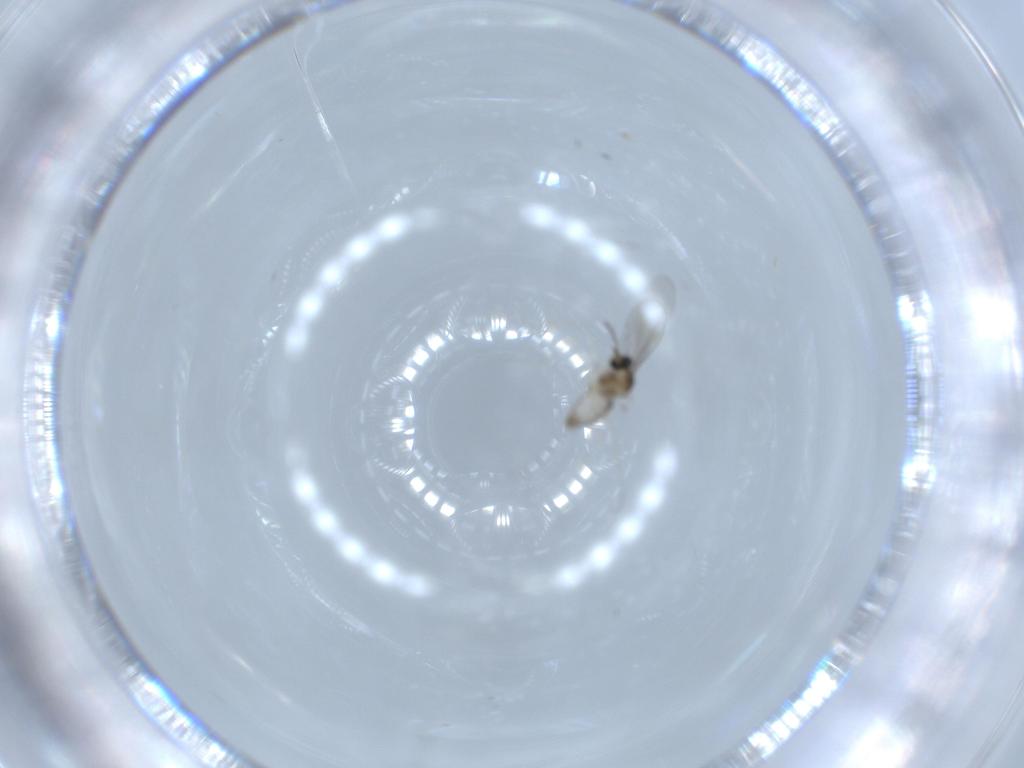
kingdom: Animalia
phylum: Arthropoda
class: Insecta
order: Diptera
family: Cecidomyiidae
